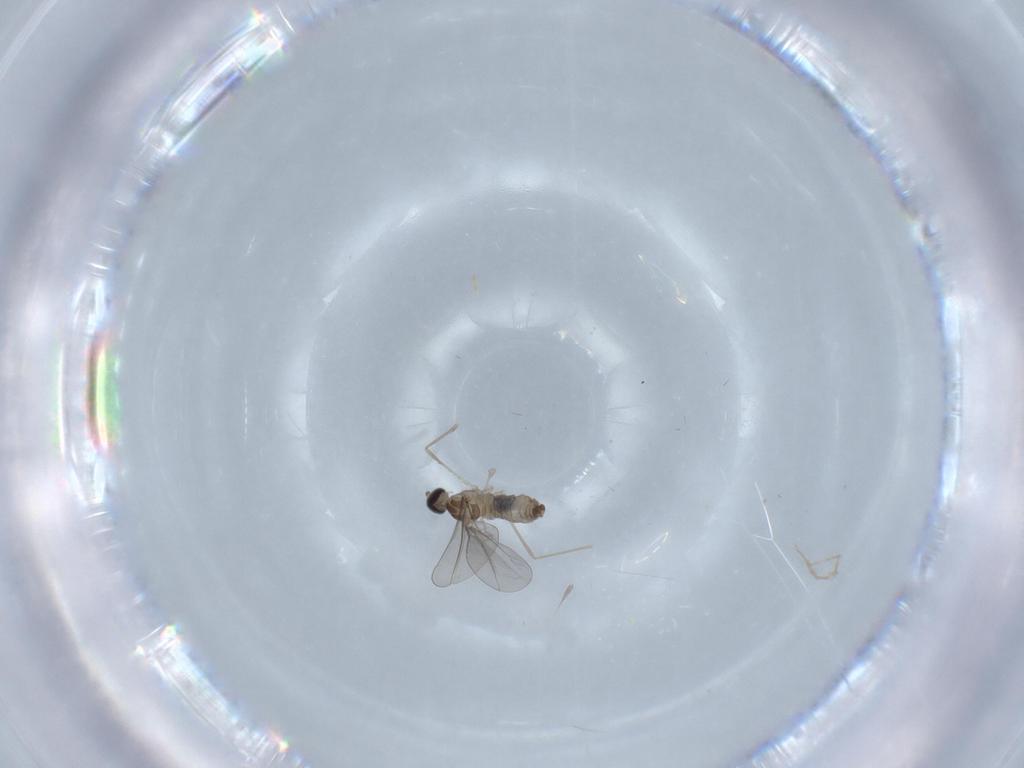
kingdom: Animalia
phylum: Arthropoda
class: Insecta
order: Diptera
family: Cecidomyiidae
